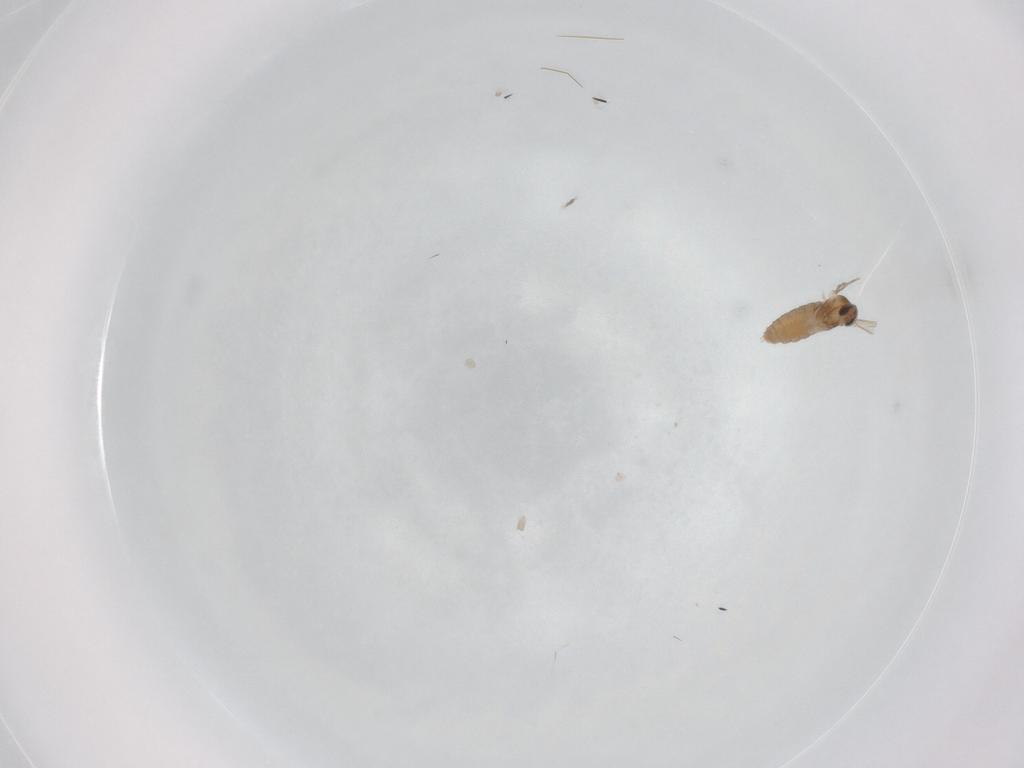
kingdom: Animalia
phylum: Arthropoda
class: Insecta
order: Diptera
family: Cecidomyiidae
